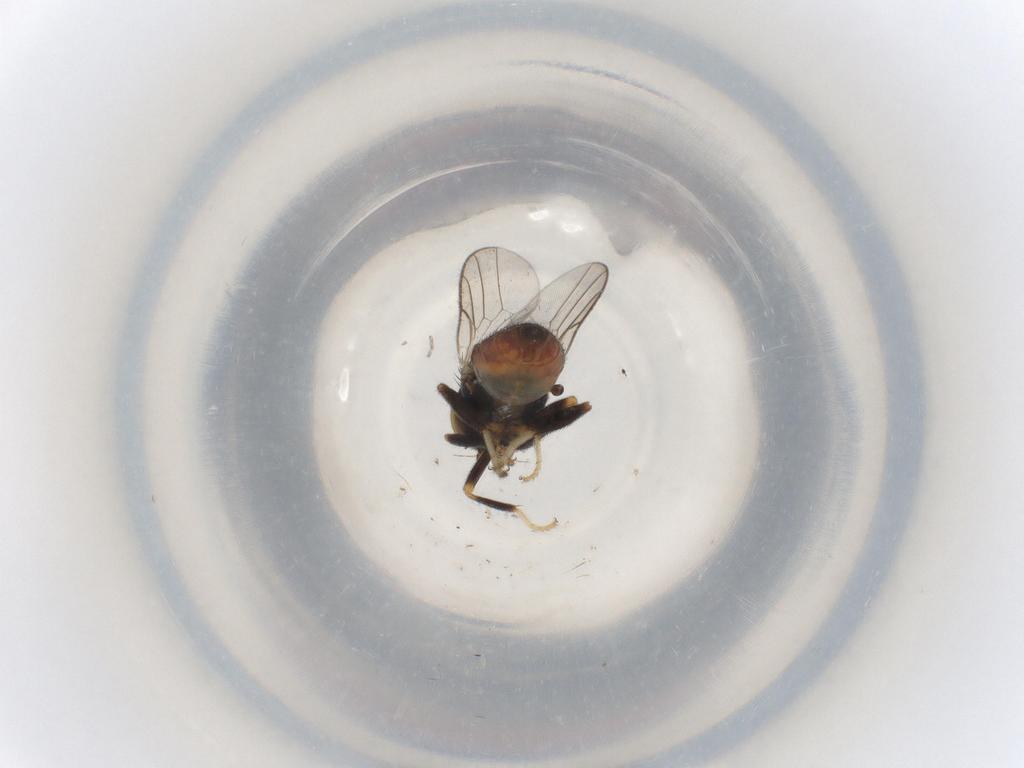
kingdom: Animalia
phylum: Arthropoda
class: Insecta
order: Diptera
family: Chloropidae
